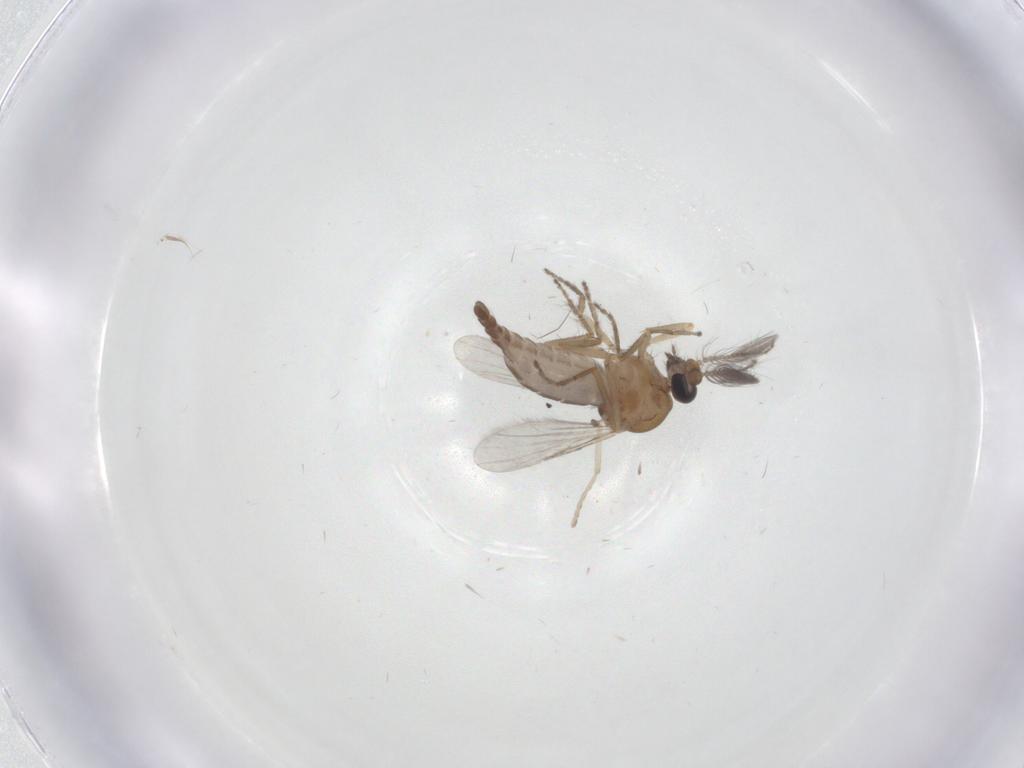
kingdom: Animalia
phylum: Arthropoda
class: Insecta
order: Diptera
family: Ceratopogonidae
